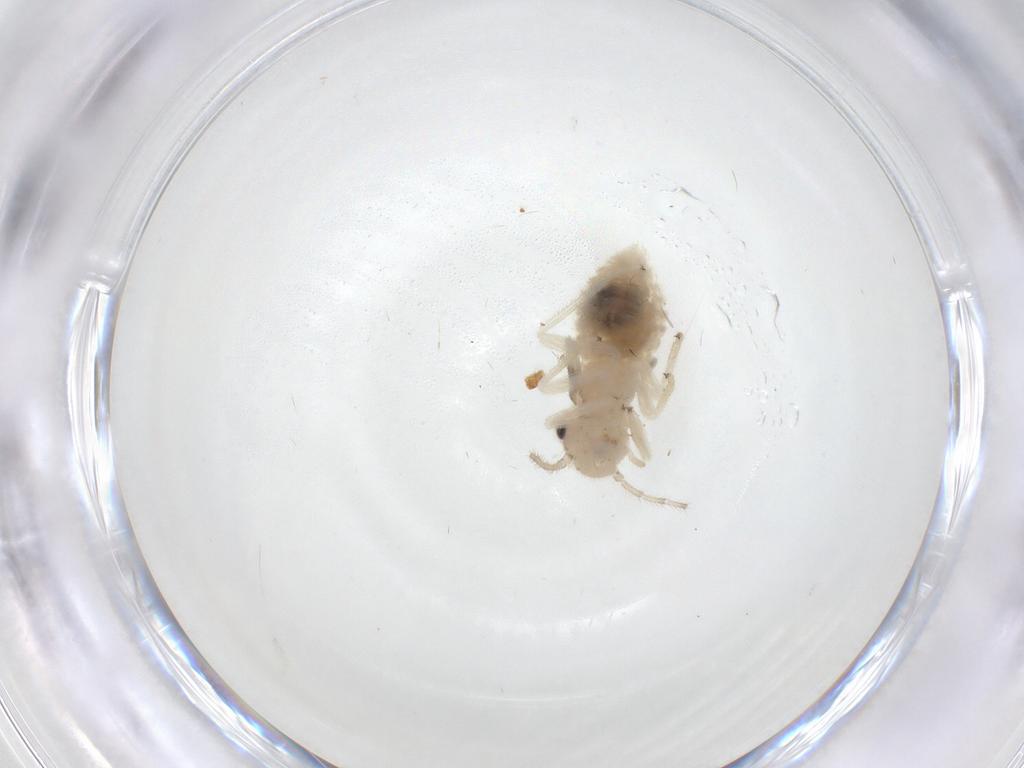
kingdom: Animalia
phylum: Arthropoda
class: Insecta
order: Psocodea
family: Amphipsocidae
